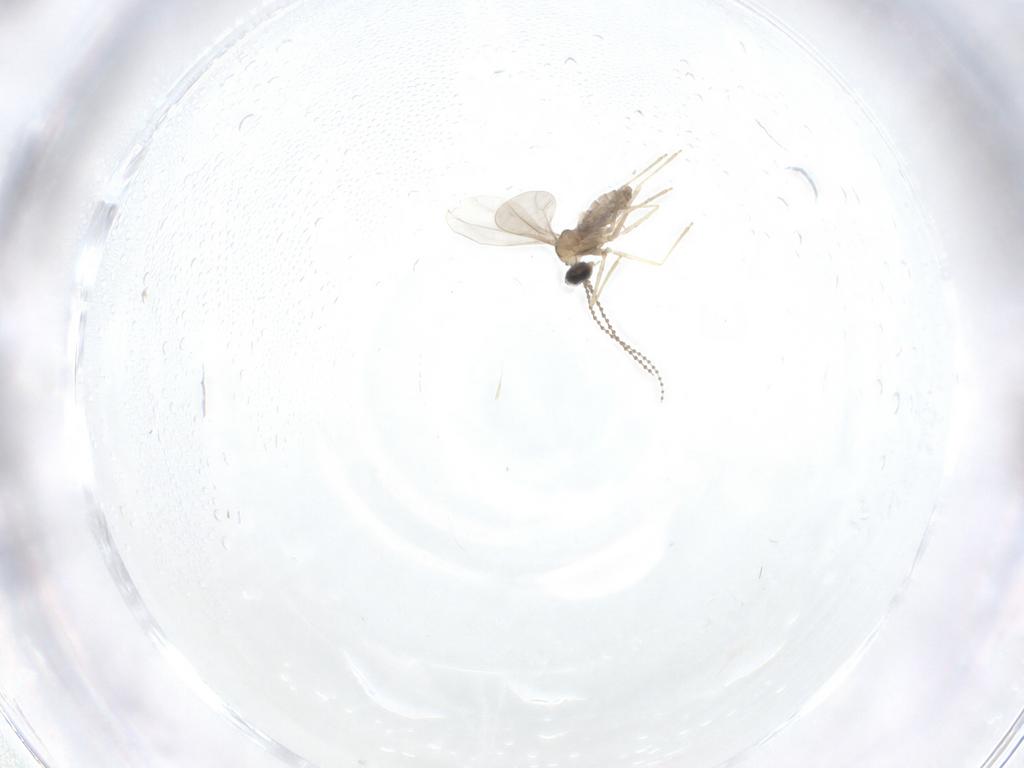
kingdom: Animalia
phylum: Arthropoda
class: Insecta
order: Diptera
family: Cecidomyiidae
